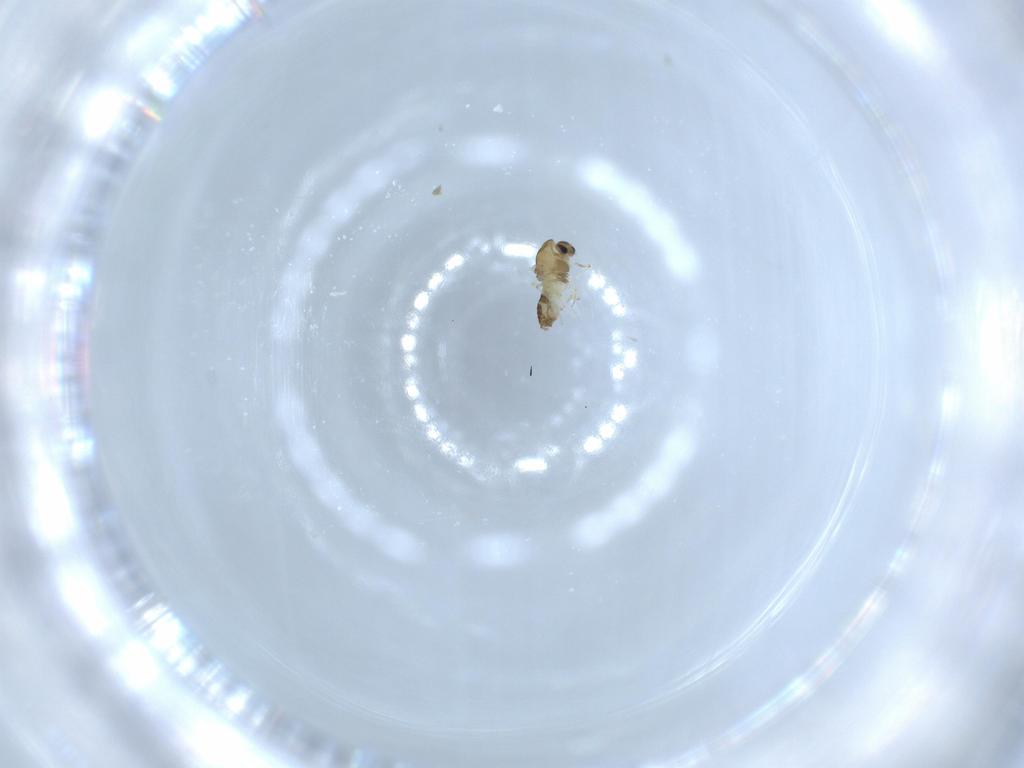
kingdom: Animalia
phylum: Arthropoda
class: Insecta
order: Diptera
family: Chironomidae
